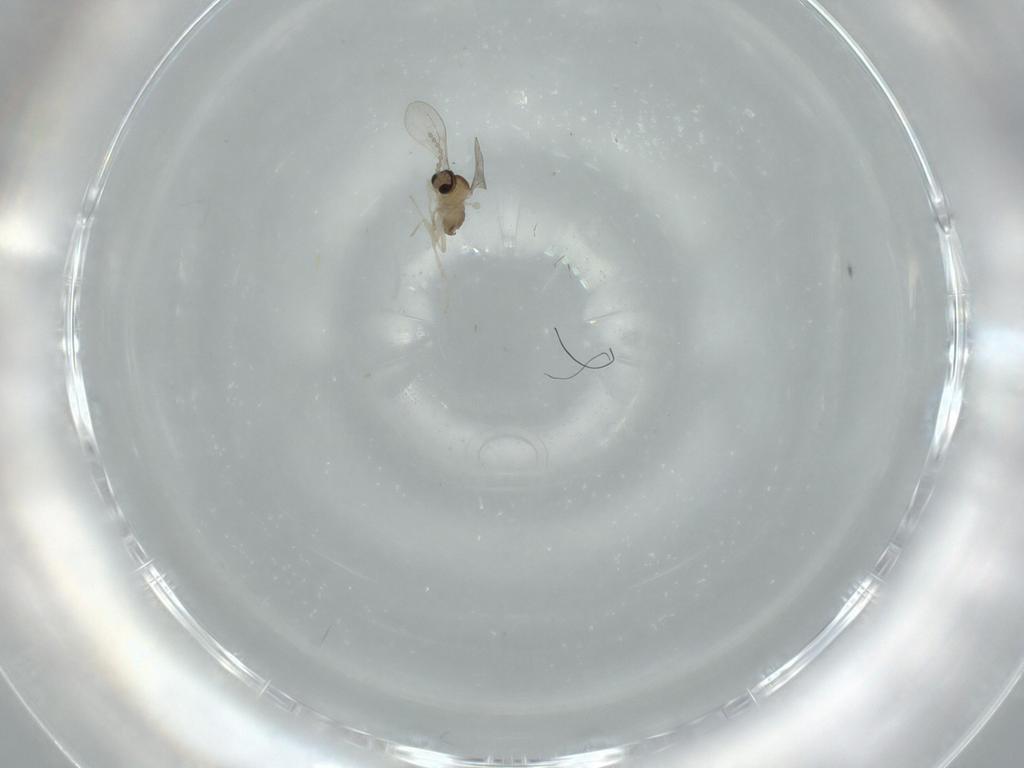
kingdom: Animalia
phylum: Arthropoda
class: Insecta
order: Diptera
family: Cecidomyiidae
